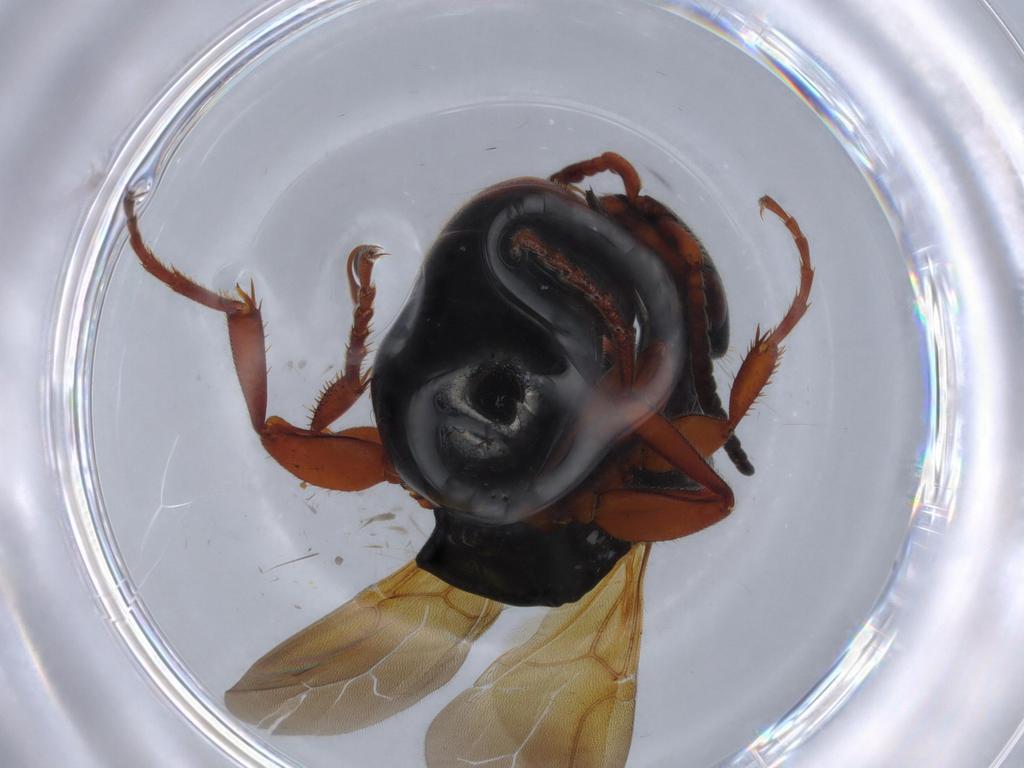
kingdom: Animalia
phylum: Arthropoda
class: Insecta
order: Hymenoptera
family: Bethylidae
